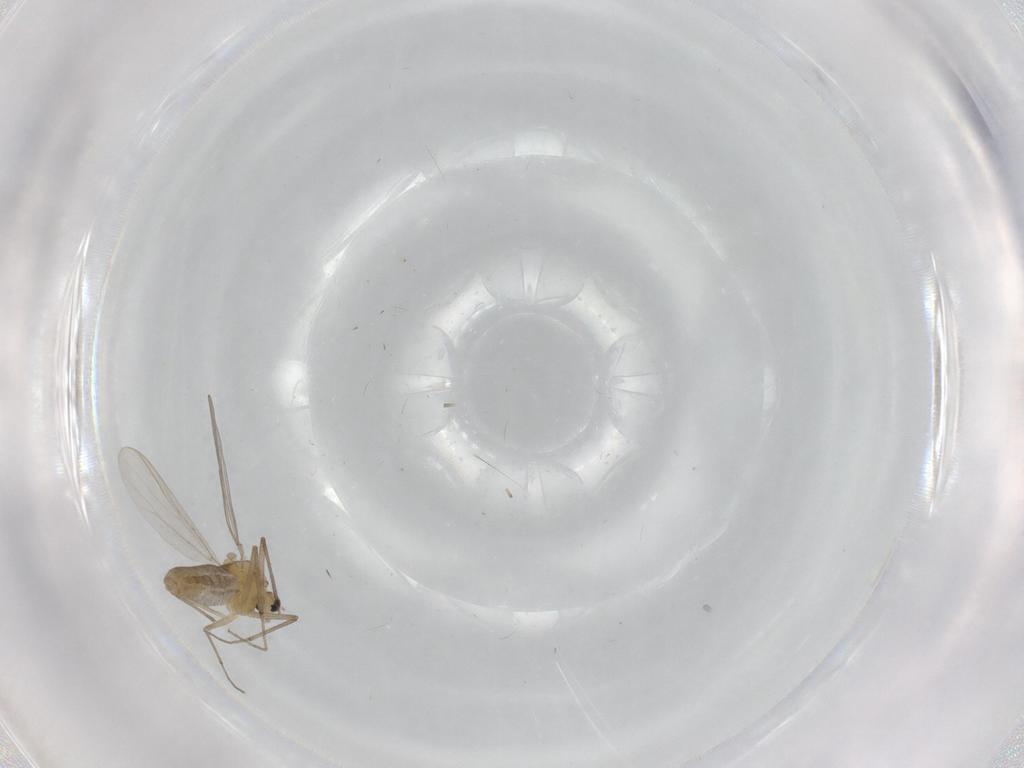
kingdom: Animalia
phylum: Arthropoda
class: Insecta
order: Diptera
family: Cecidomyiidae
